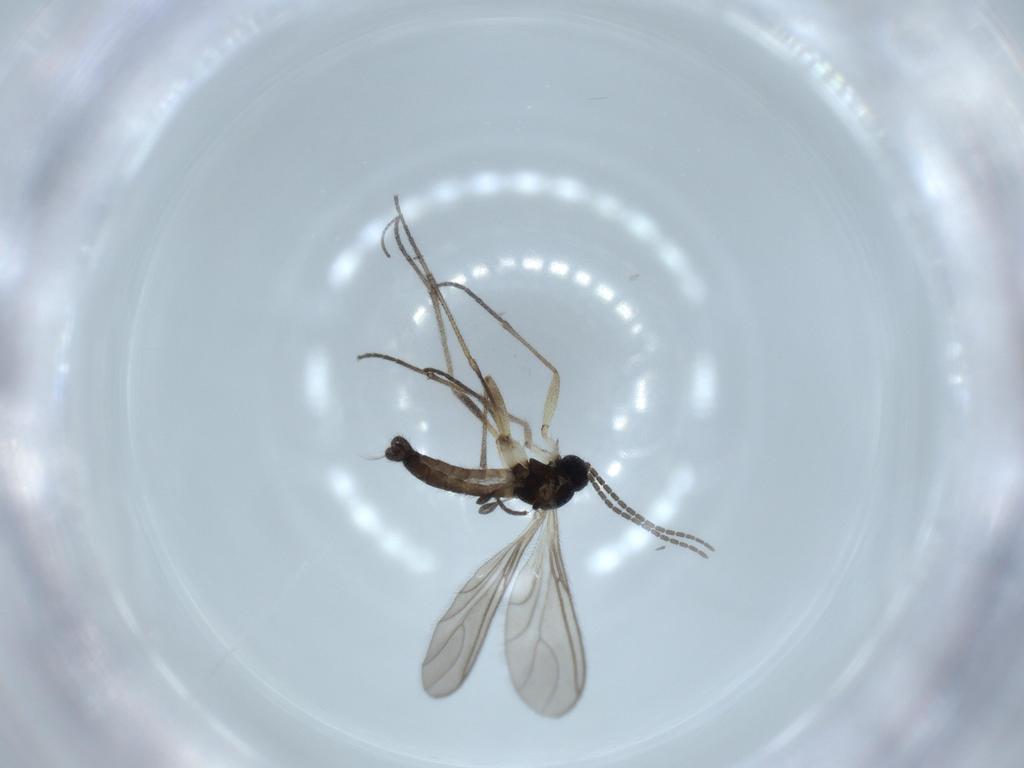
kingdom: Animalia
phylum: Arthropoda
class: Insecta
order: Diptera
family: Sciaridae
